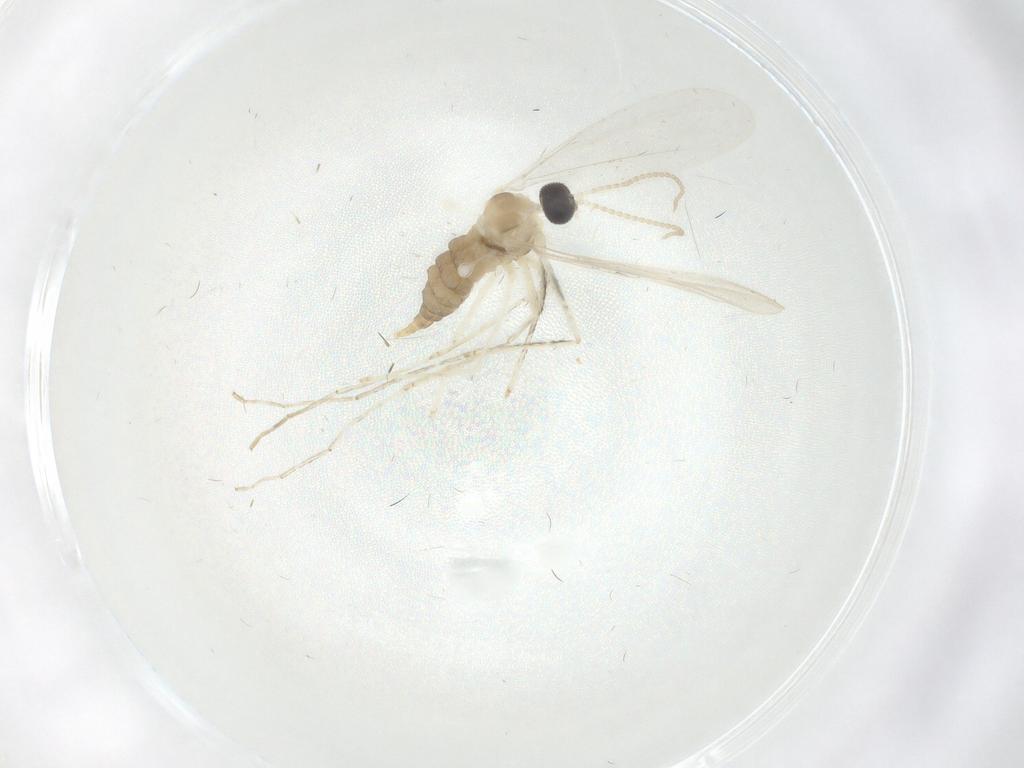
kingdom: Animalia
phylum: Arthropoda
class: Insecta
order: Diptera
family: Cecidomyiidae
